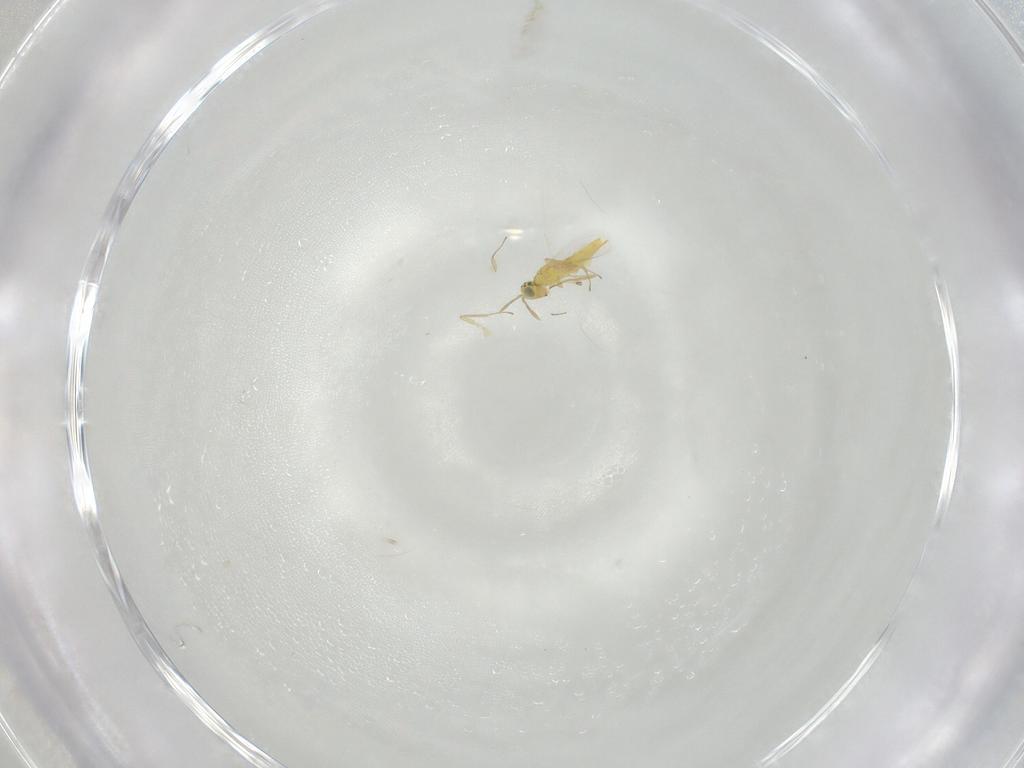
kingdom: Animalia
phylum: Arthropoda
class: Insecta
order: Hymenoptera
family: Aphelinidae
